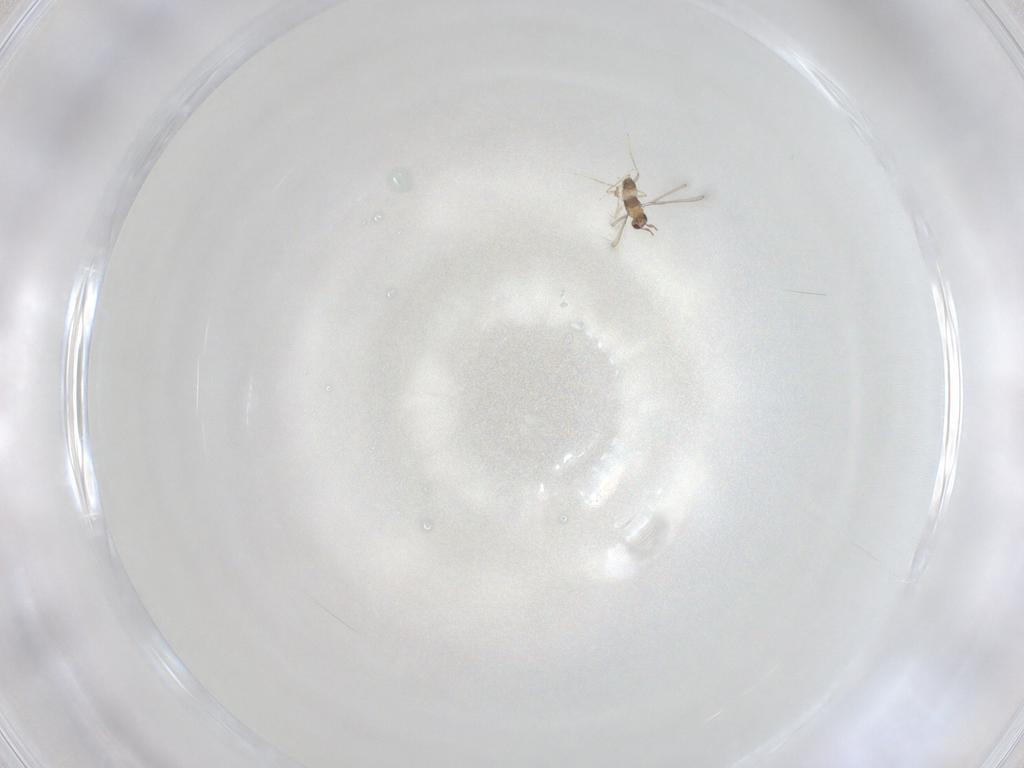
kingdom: Animalia
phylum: Arthropoda
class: Insecta
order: Hymenoptera
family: Mymaridae
